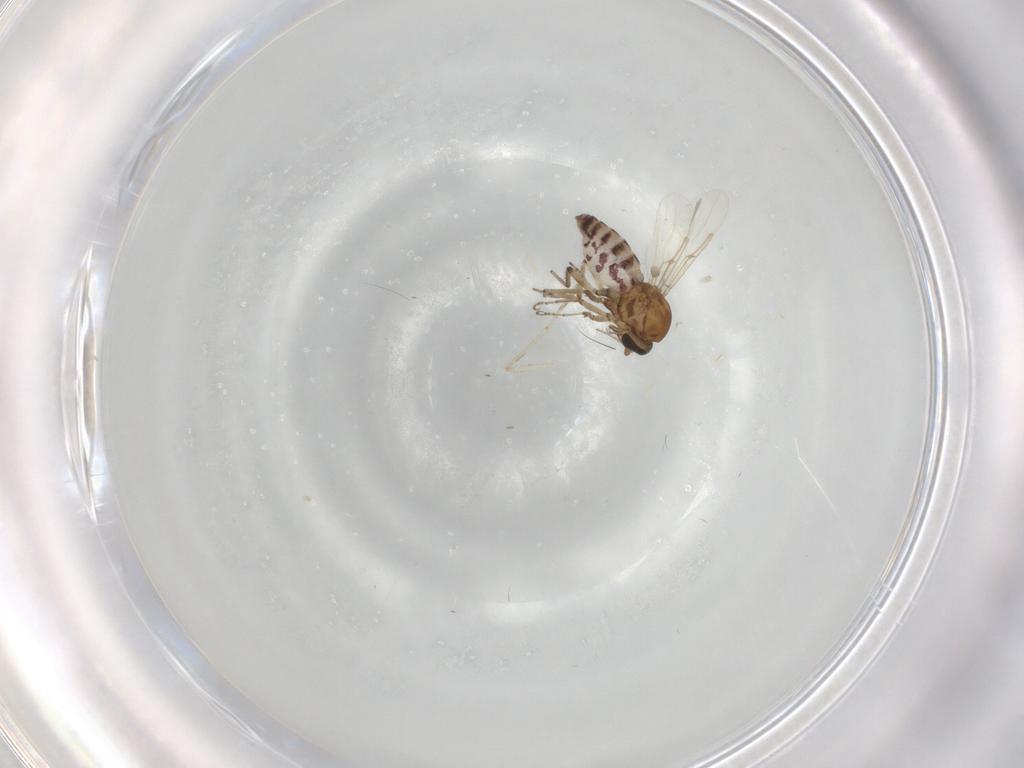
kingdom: Animalia
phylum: Arthropoda
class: Insecta
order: Diptera
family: Ceratopogonidae
